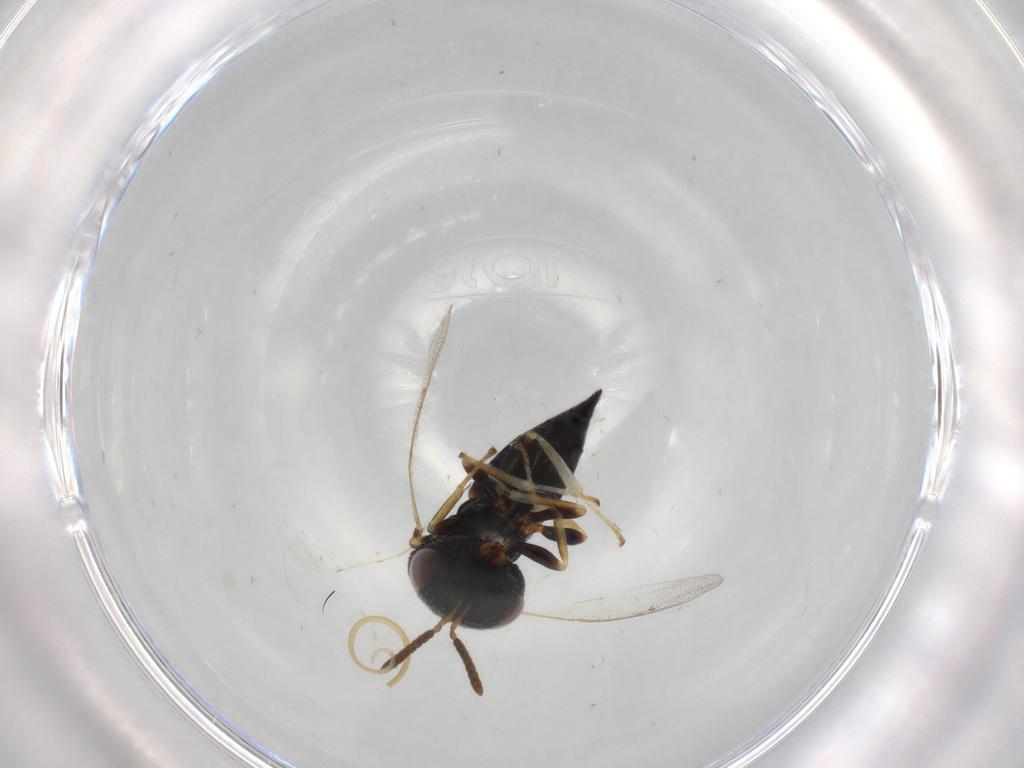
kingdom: Animalia
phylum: Arthropoda
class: Insecta
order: Hymenoptera
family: Pteromalidae
